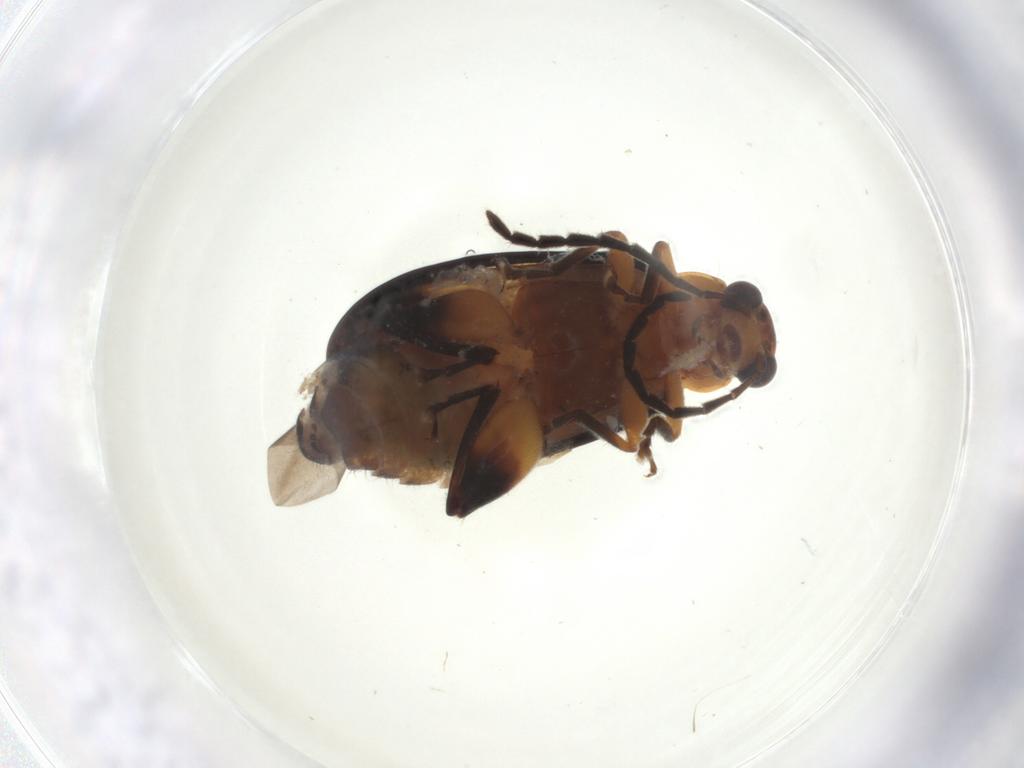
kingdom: Animalia
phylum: Arthropoda
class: Insecta
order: Coleoptera
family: Chrysomelidae
